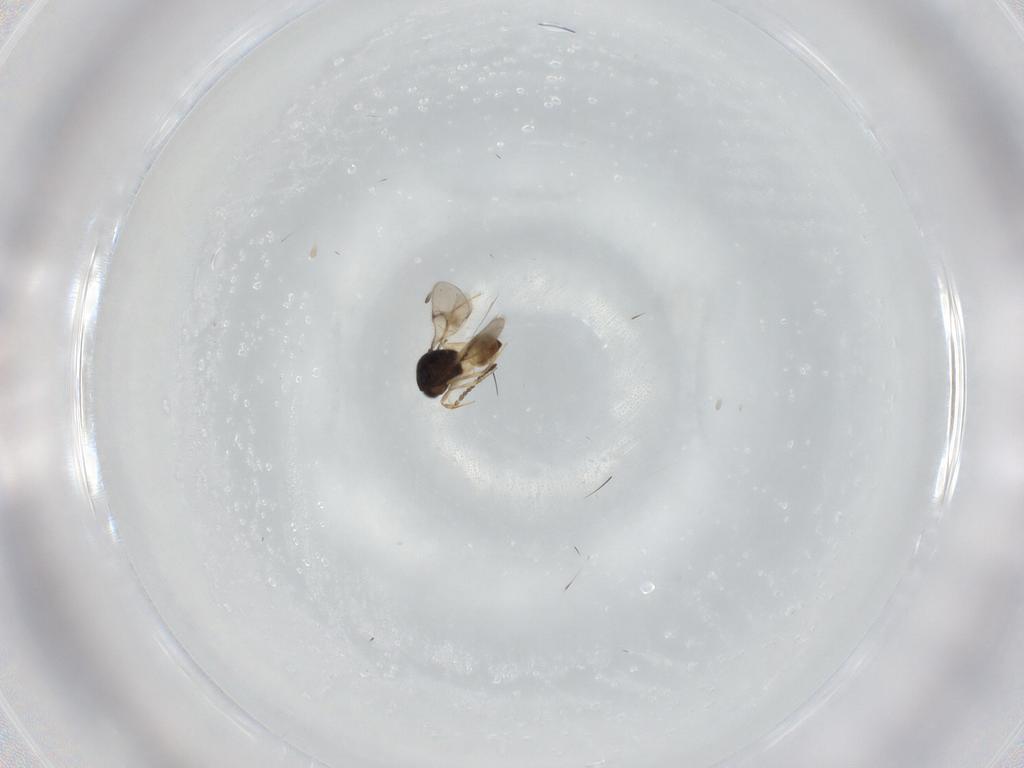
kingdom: Animalia
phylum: Arthropoda
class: Insecta
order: Hymenoptera
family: Scelionidae
